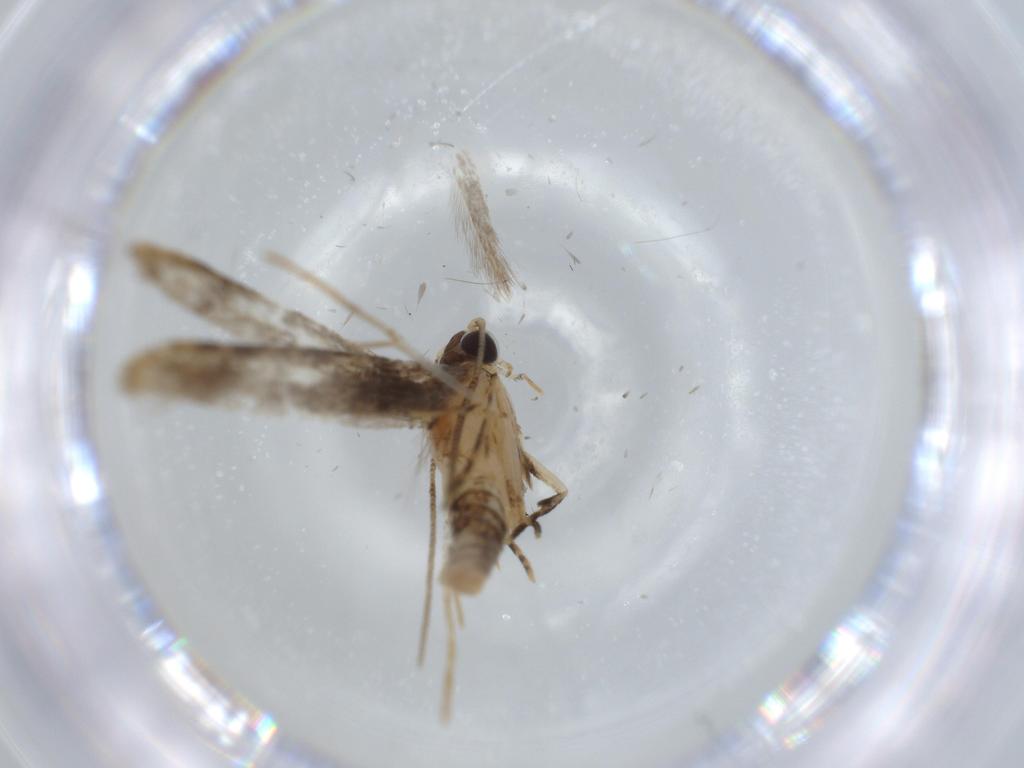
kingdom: Animalia
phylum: Arthropoda
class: Insecta
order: Lepidoptera
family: Tineidae
